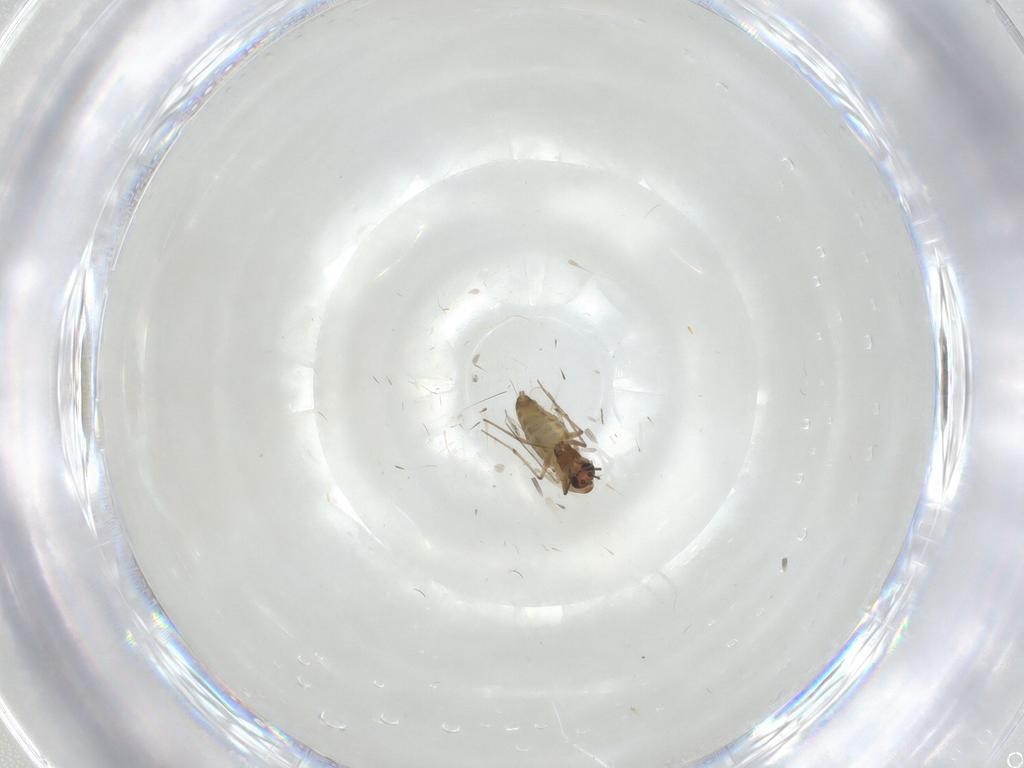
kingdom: Animalia
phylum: Arthropoda
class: Insecta
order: Diptera
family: Chironomidae
